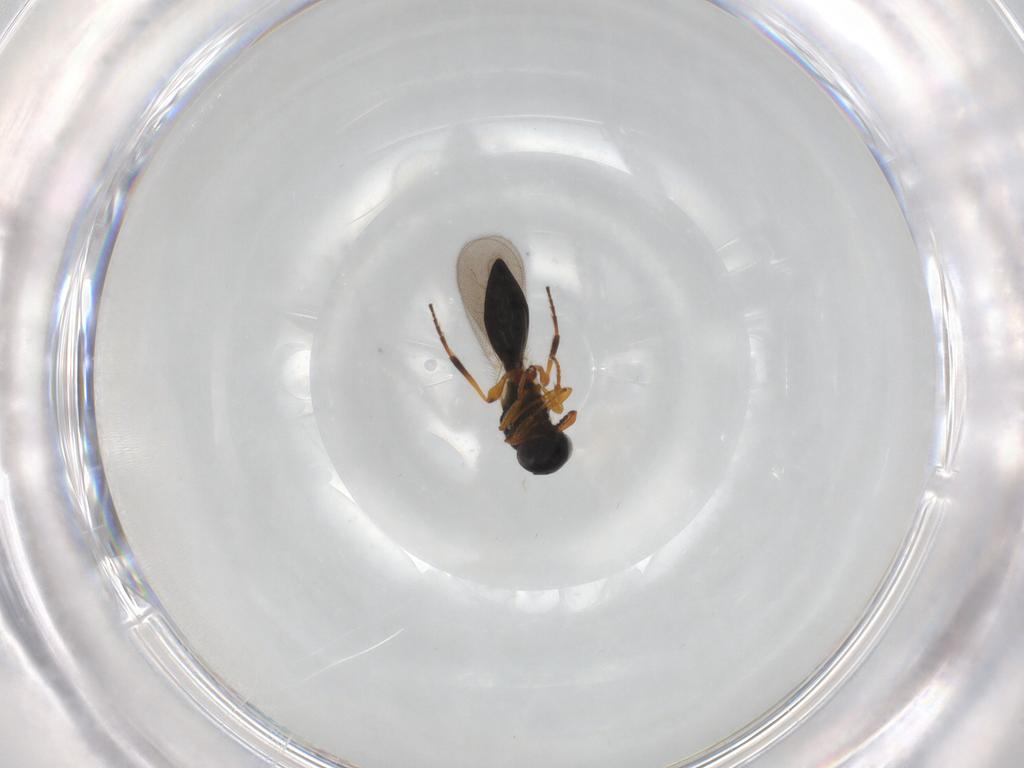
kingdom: Animalia
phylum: Arthropoda
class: Insecta
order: Hymenoptera
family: Platygastridae
